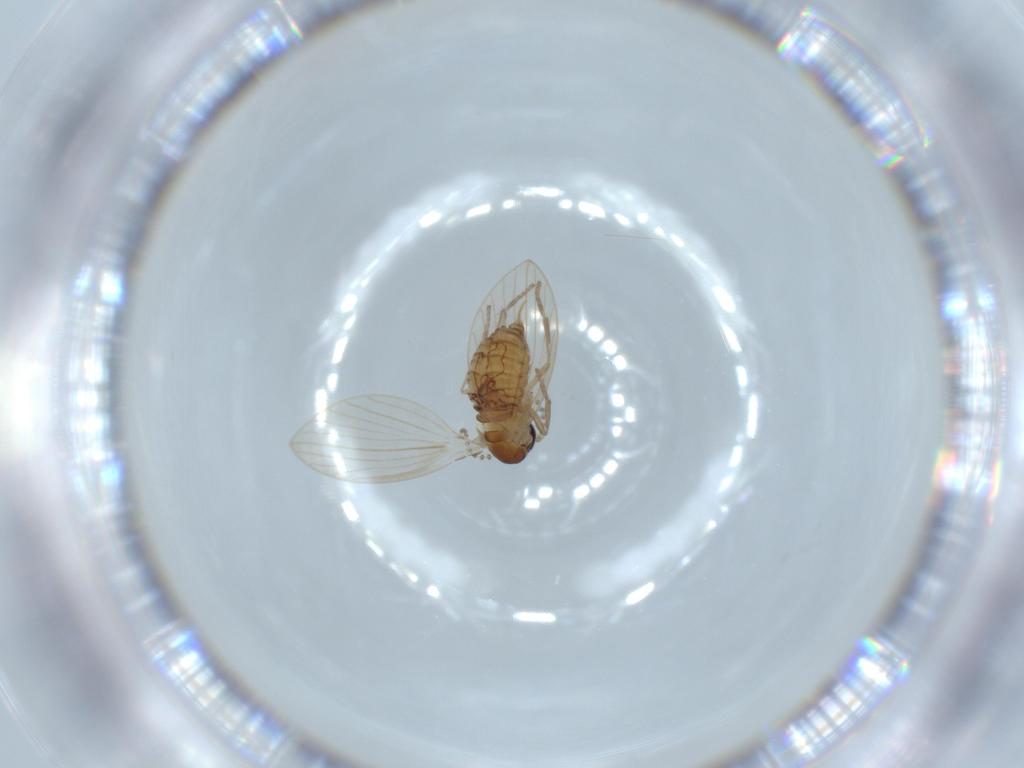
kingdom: Animalia
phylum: Arthropoda
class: Insecta
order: Diptera
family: Psychodidae
